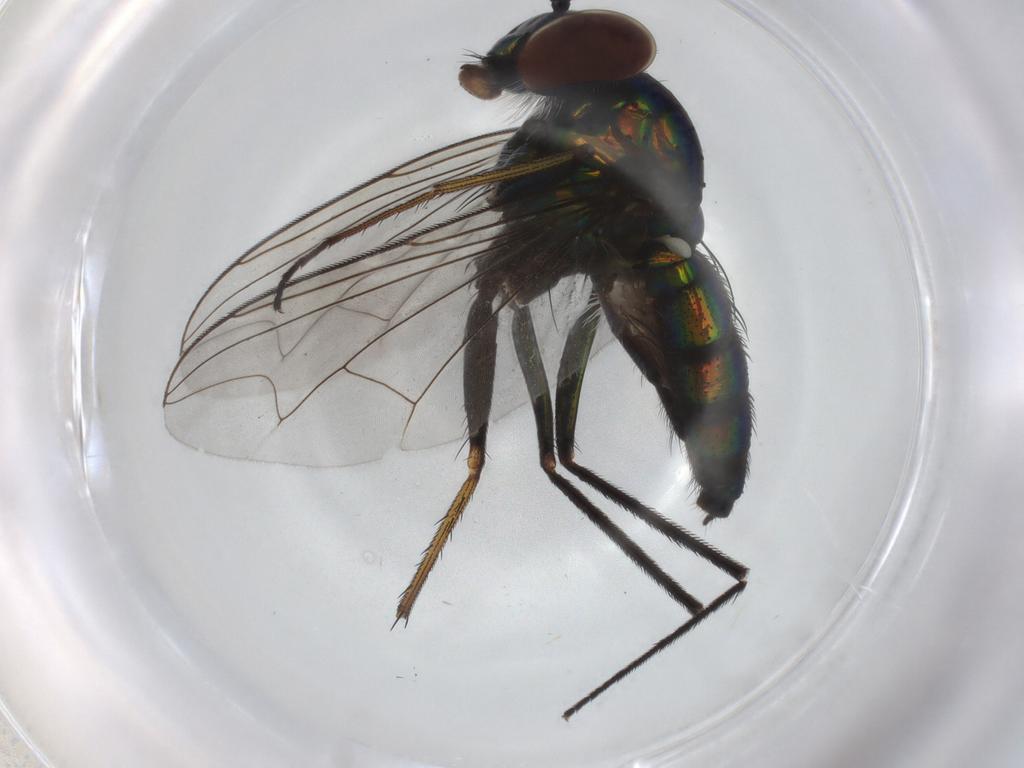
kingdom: Animalia
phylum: Arthropoda
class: Insecta
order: Diptera
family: Dolichopodidae
